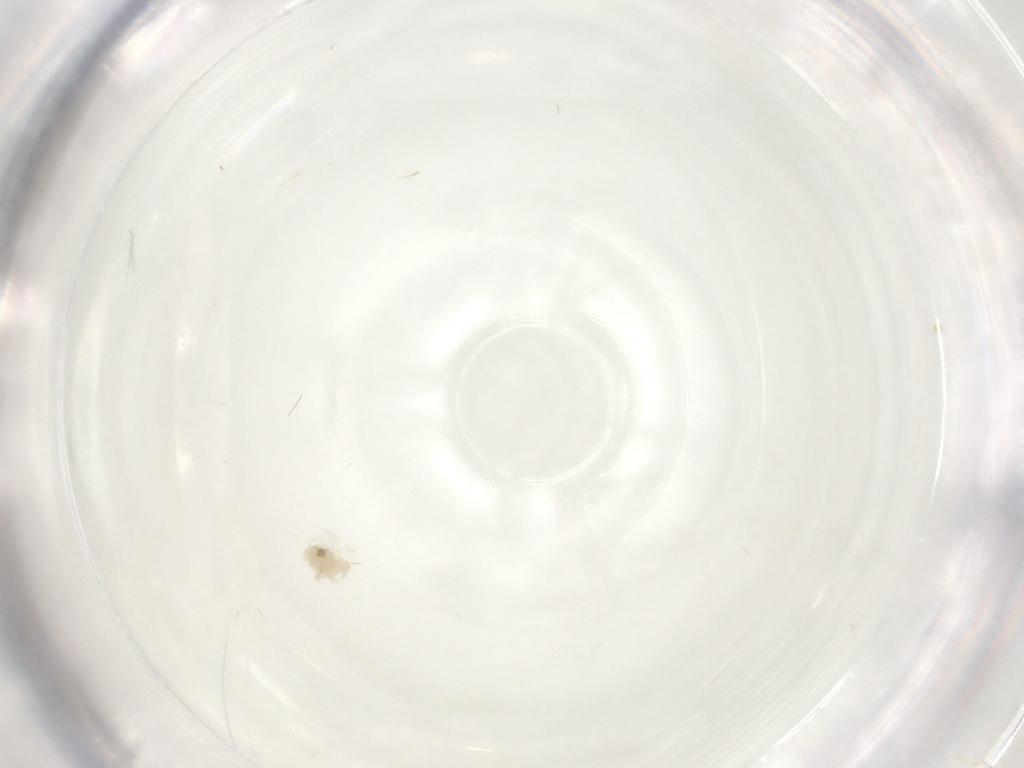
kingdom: Animalia
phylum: Arthropoda
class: Arachnida
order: Trombidiformes
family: Anystidae
